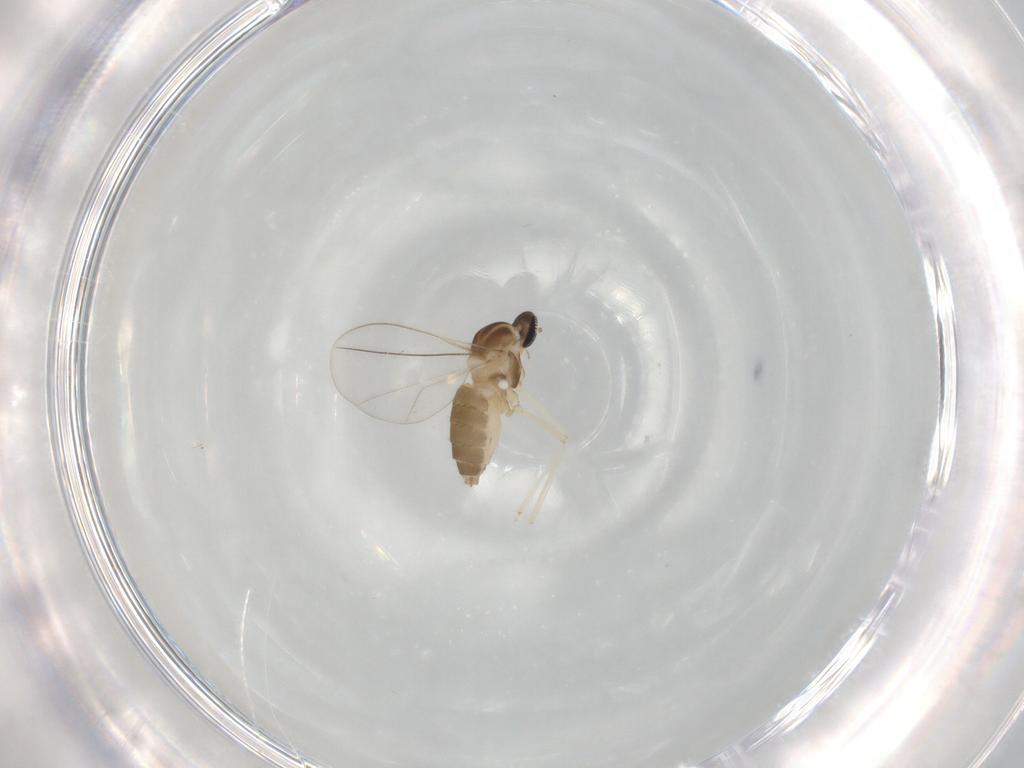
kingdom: Animalia
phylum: Arthropoda
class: Insecta
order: Diptera
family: Cecidomyiidae
